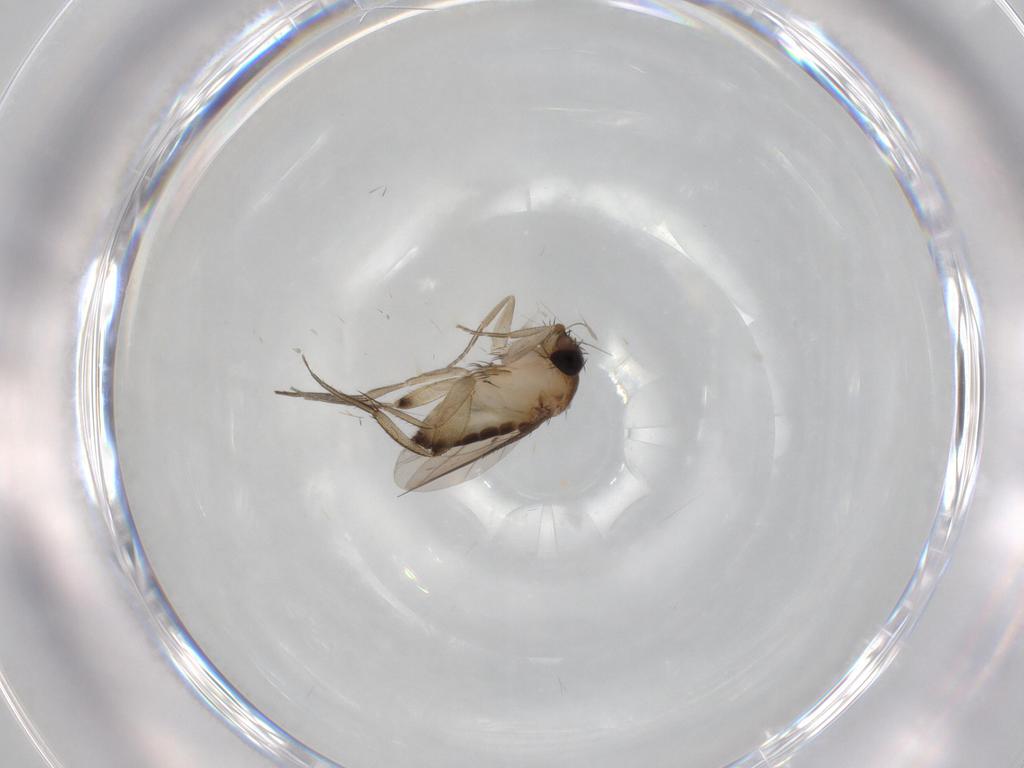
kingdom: Animalia
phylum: Arthropoda
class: Insecta
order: Diptera
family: Phoridae
